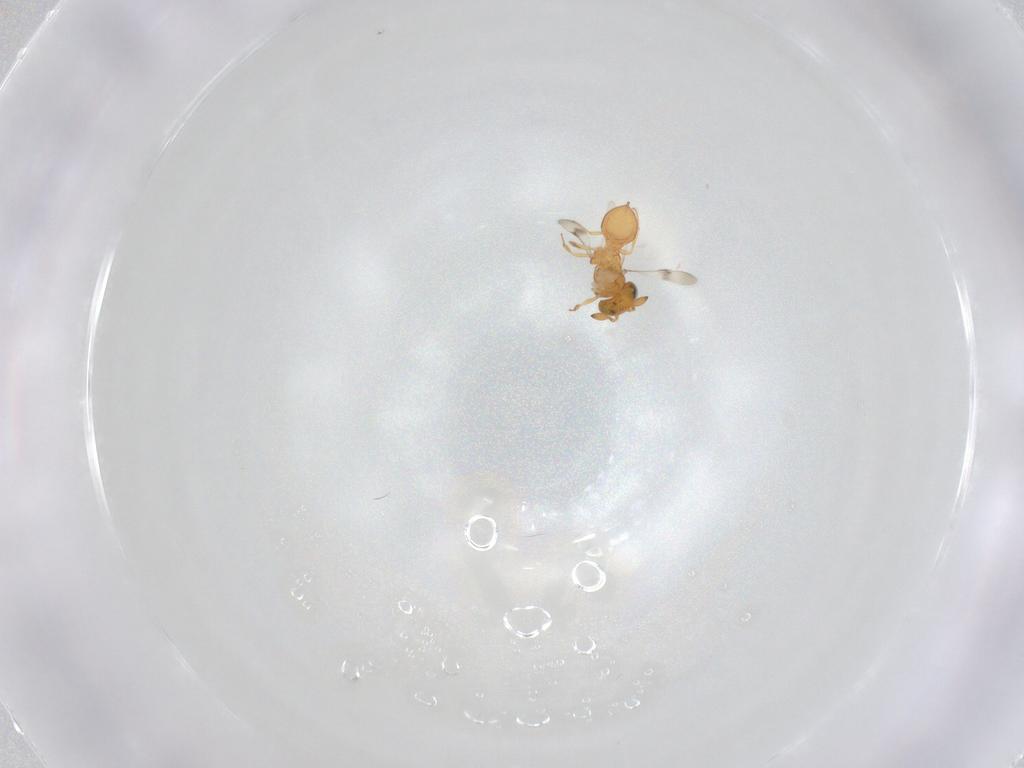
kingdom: Animalia
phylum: Arthropoda
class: Insecta
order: Hymenoptera
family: Scelionidae
